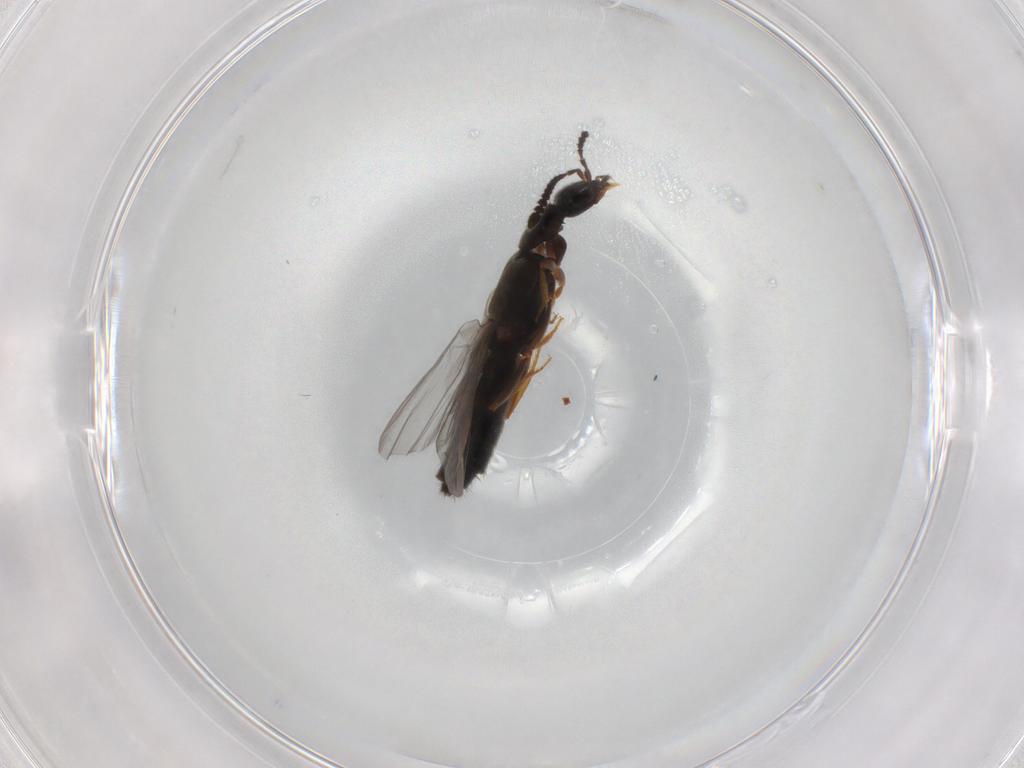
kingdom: Animalia
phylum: Arthropoda
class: Insecta
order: Coleoptera
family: Staphylinidae
